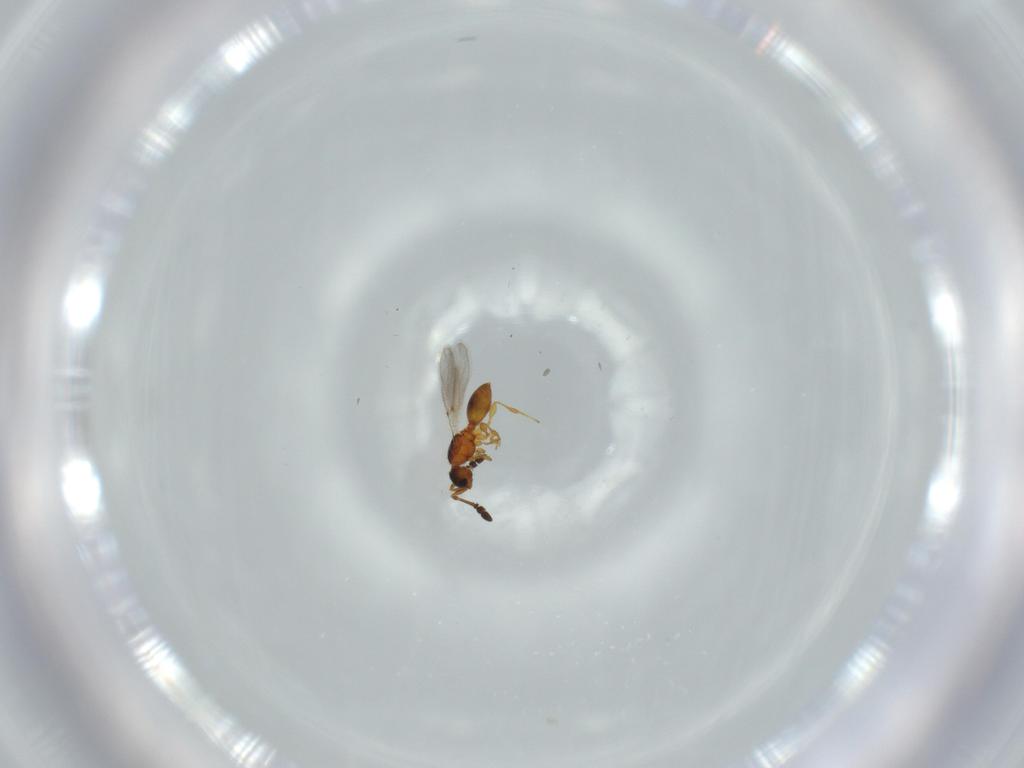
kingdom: Animalia
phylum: Arthropoda
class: Insecta
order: Hymenoptera
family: Diapriidae
